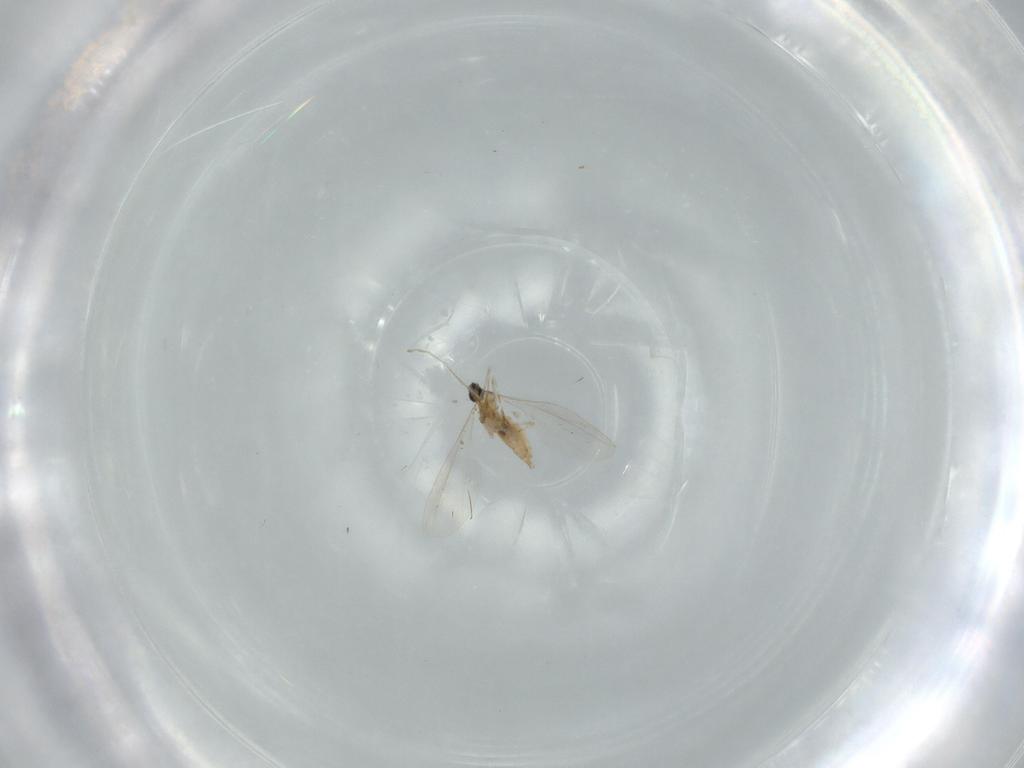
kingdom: Animalia
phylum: Arthropoda
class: Insecta
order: Diptera
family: Cecidomyiidae
